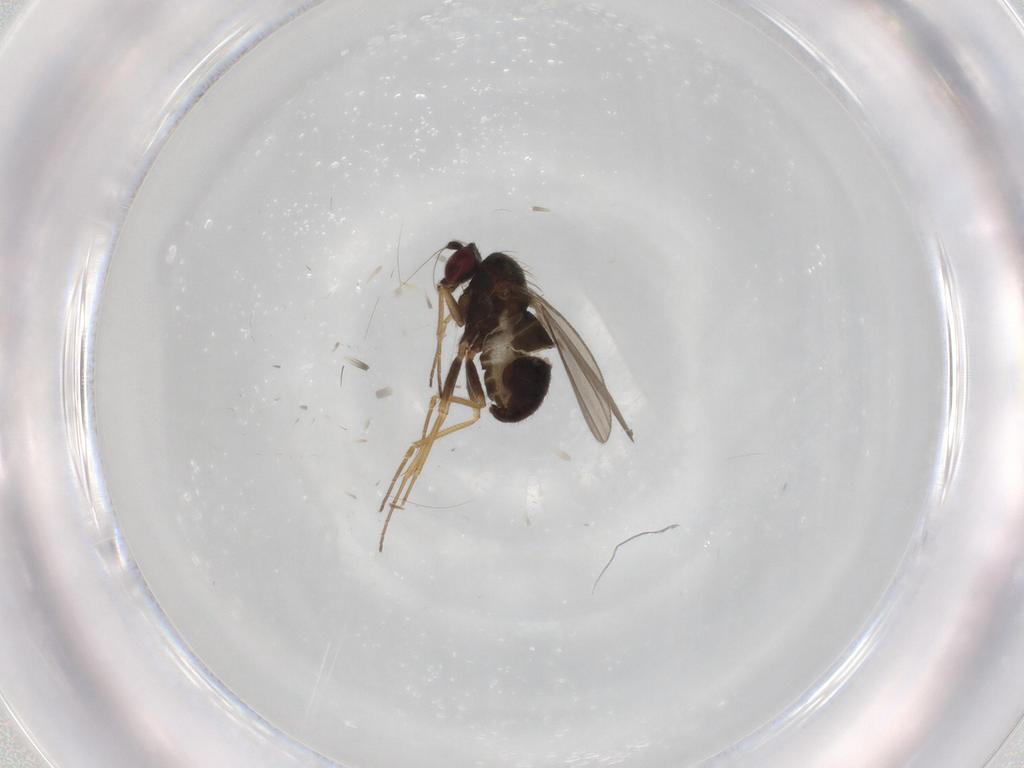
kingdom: Animalia
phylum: Arthropoda
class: Insecta
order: Diptera
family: Dolichopodidae
